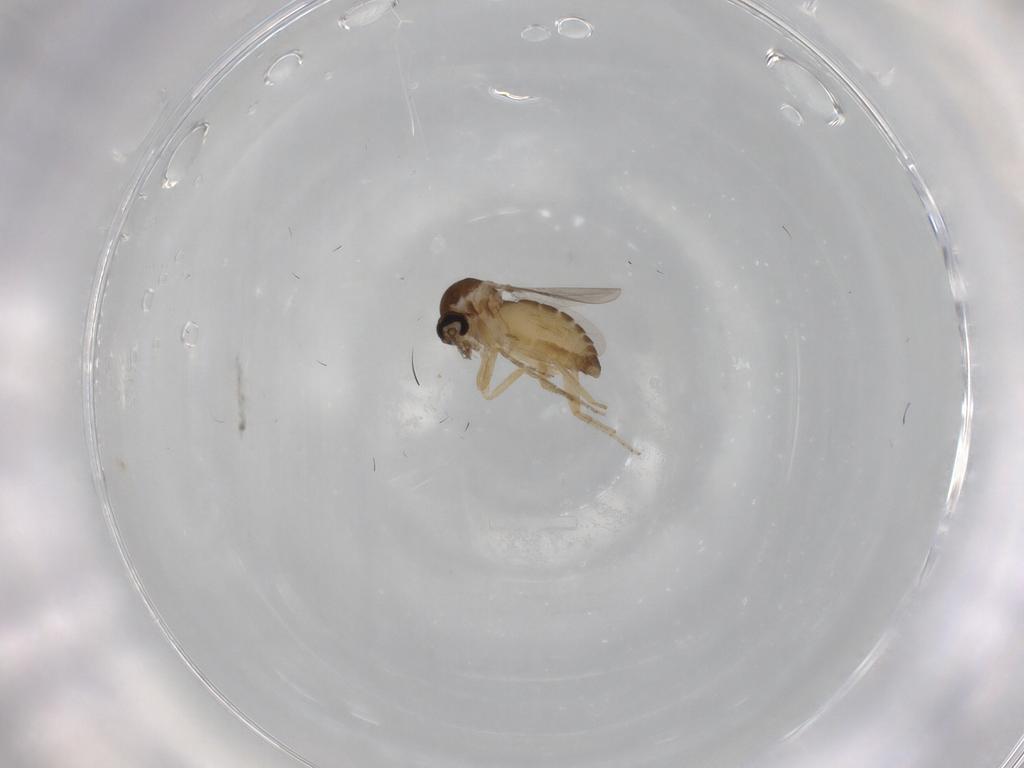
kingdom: Animalia
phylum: Arthropoda
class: Insecta
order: Diptera
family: Ceratopogonidae
